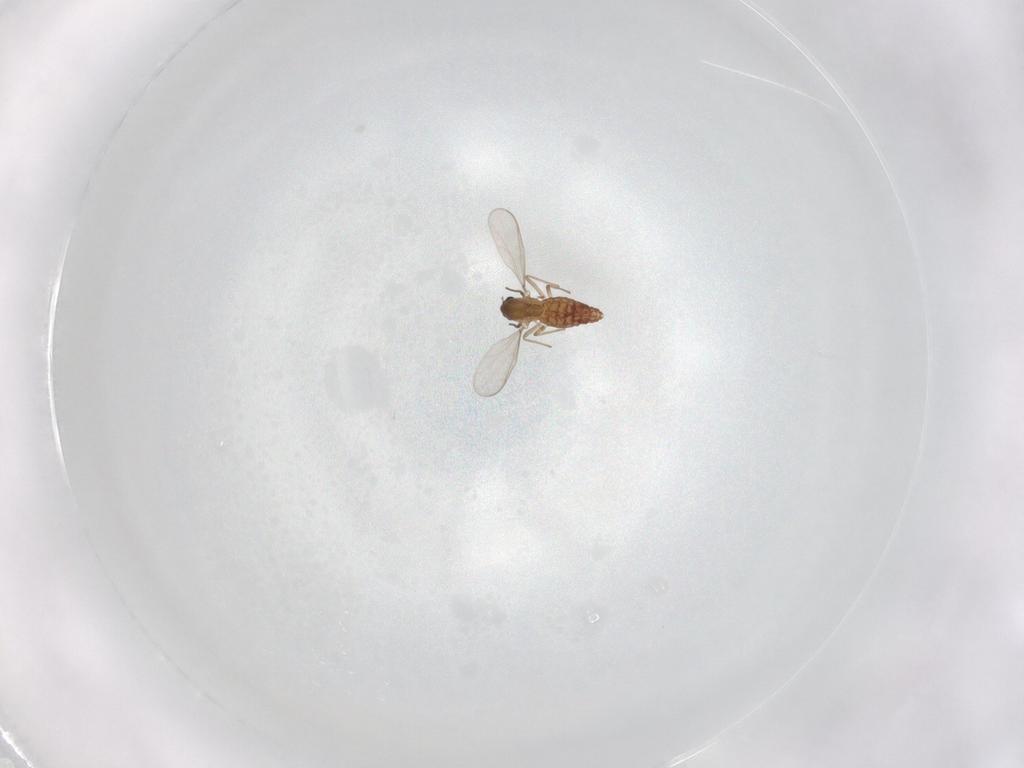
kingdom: Animalia
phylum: Arthropoda
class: Insecta
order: Diptera
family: Chironomidae
